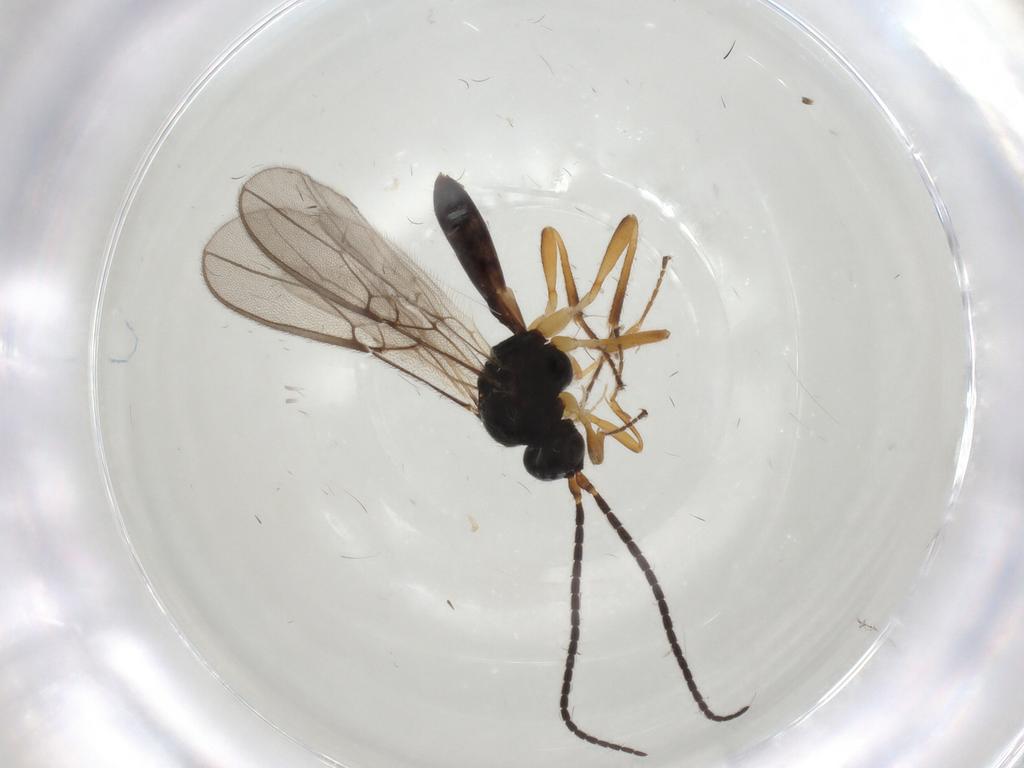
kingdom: Animalia
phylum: Arthropoda
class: Insecta
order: Hymenoptera
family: Braconidae
